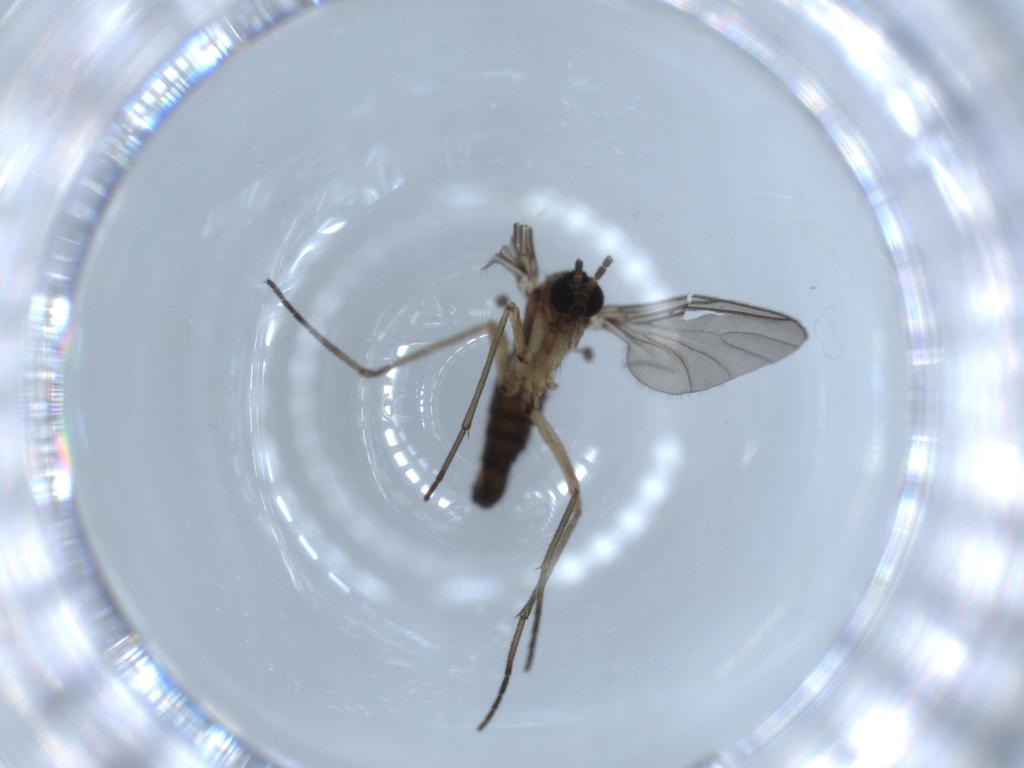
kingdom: Animalia
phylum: Arthropoda
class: Insecta
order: Diptera
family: Sciaridae
